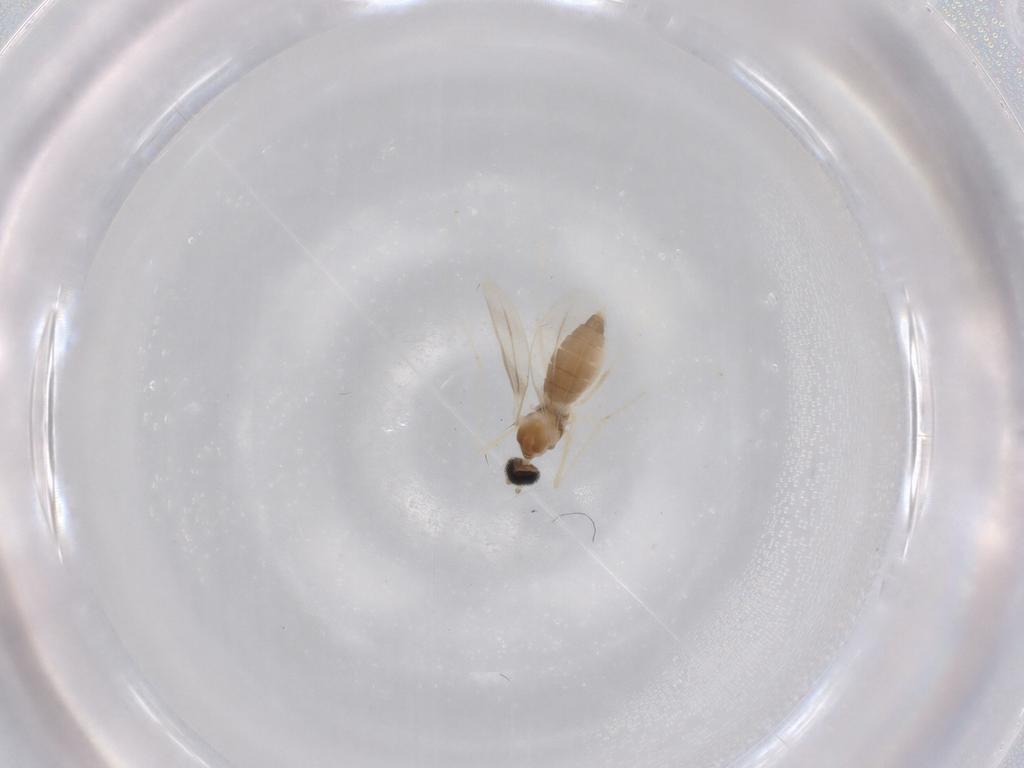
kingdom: Animalia
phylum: Arthropoda
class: Insecta
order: Diptera
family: Cecidomyiidae
